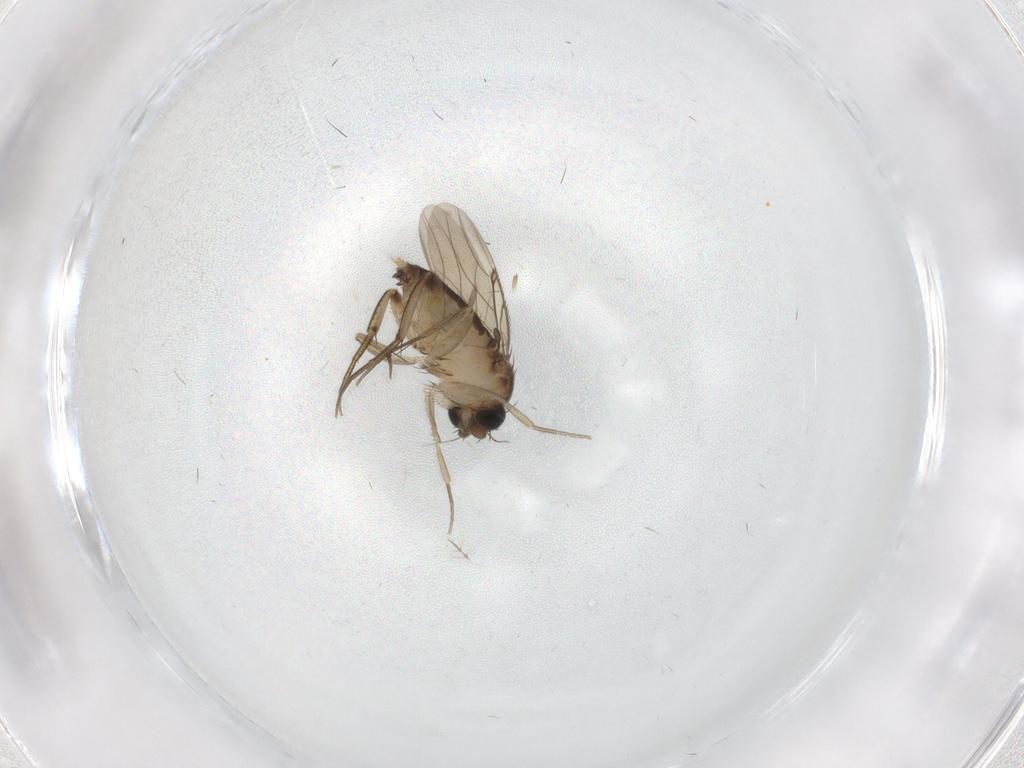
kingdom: Animalia
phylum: Arthropoda
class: Insecta
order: Diptera
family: Phoridae
